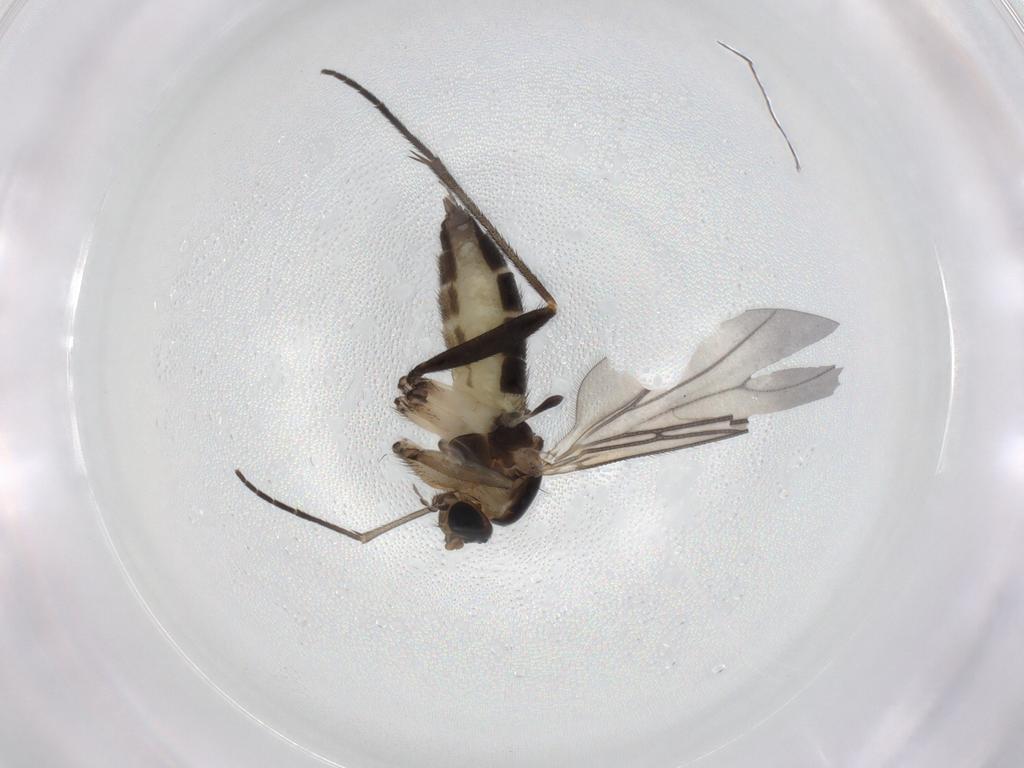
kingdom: Animalia
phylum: Arthropoda
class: Insecta
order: Diptera
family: Sciaridae
